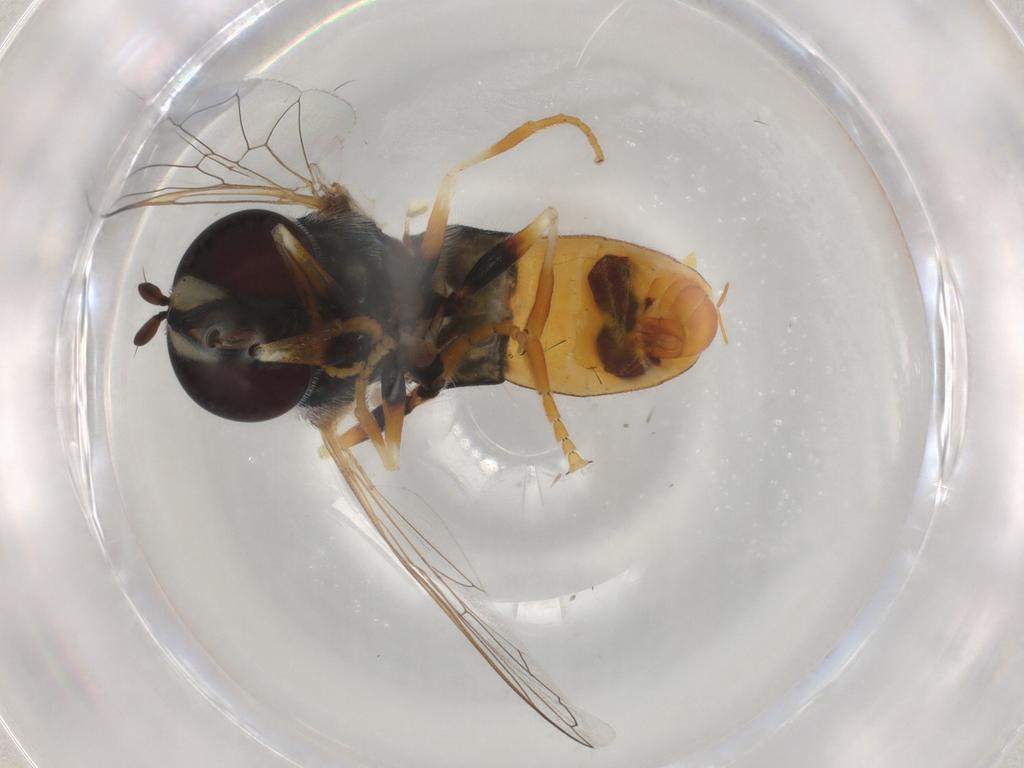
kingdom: Animalia
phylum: Arthropoda
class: Insecta
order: Diptera
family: Syrphidae
